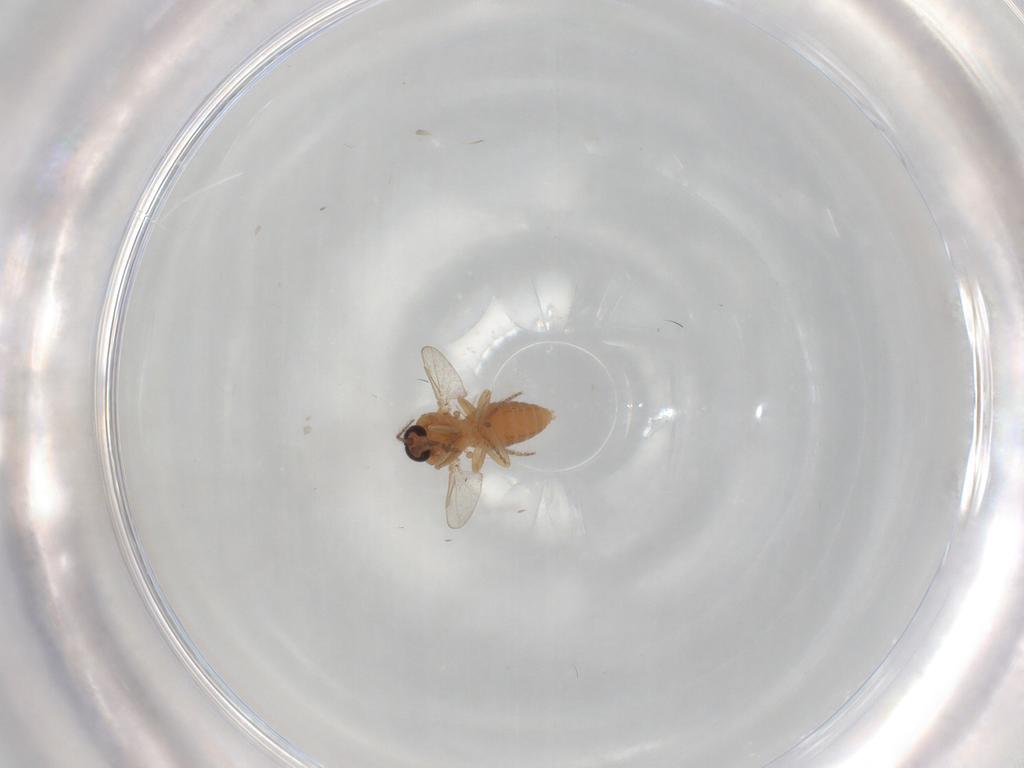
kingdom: Animalia
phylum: Arthropoda
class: Insecta
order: Diptera
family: Ceratopogonidae
